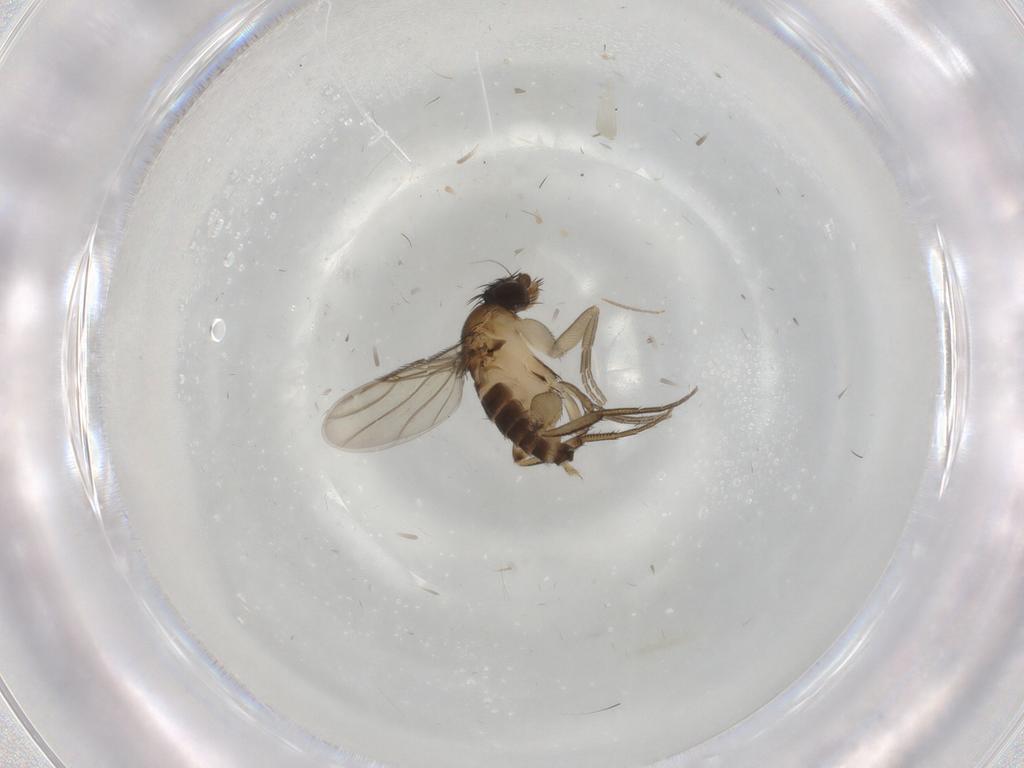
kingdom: Animalia
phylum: Arthropoda
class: Insecta
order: Diptera
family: Phoridae
